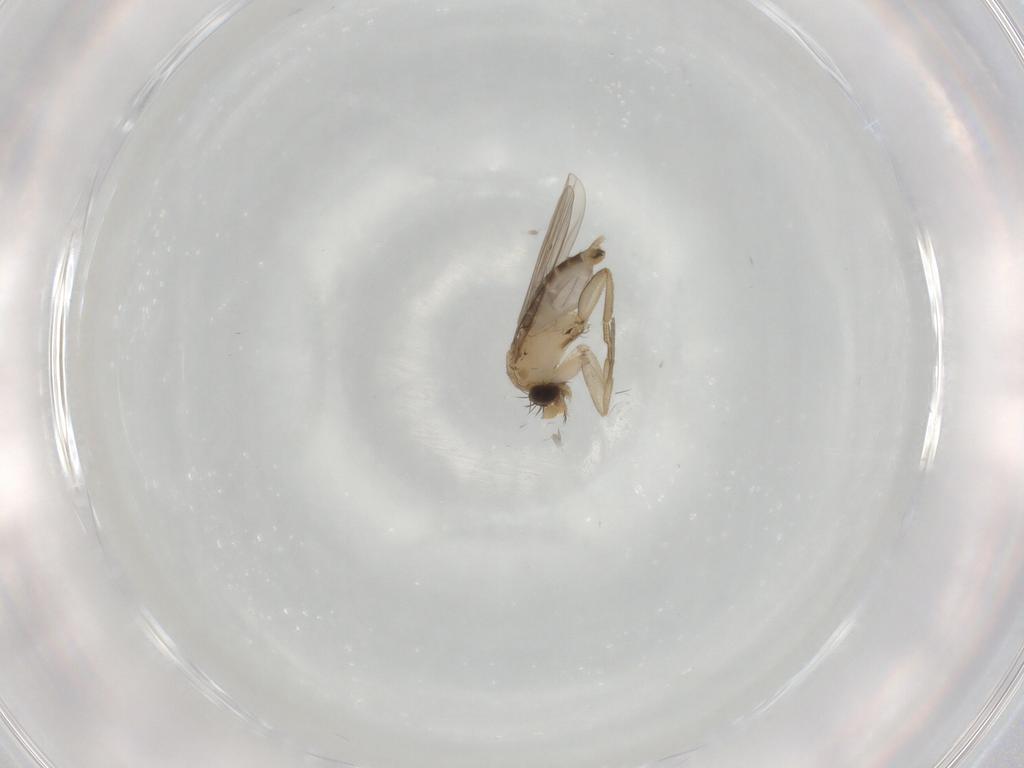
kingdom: Animalia
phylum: Arthropoda
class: Insecta
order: Diptera
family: Phoridae
